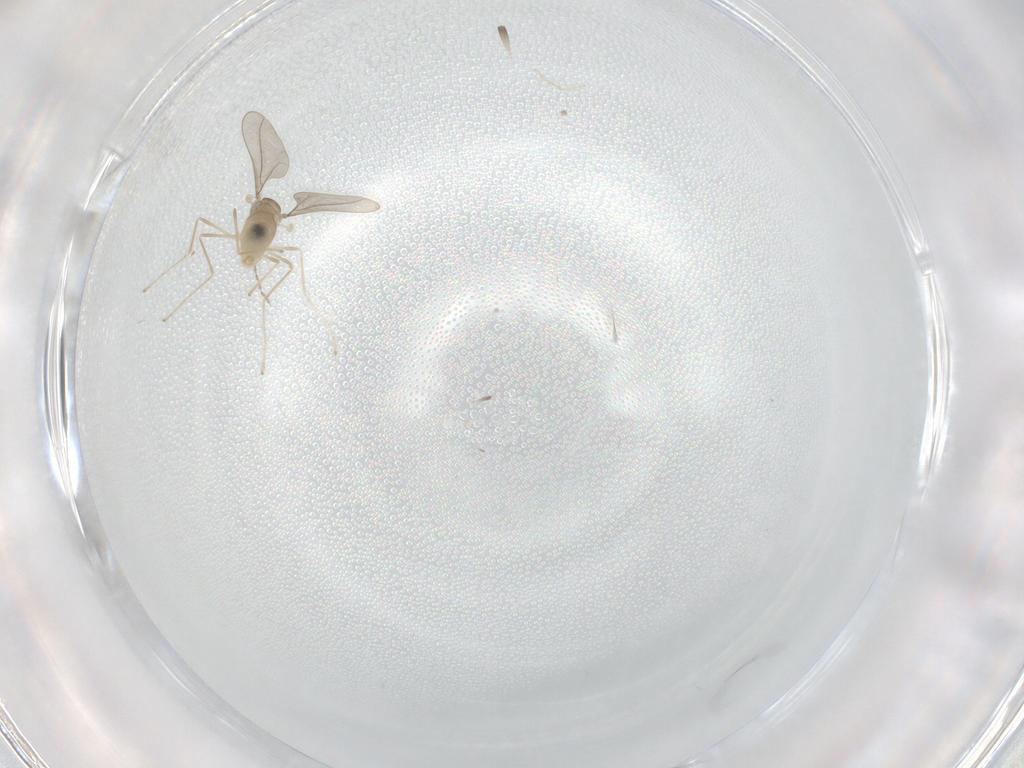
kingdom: Animalia
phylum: Arthropoda
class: Insecta
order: Diptera
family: Cecidomyiidae
